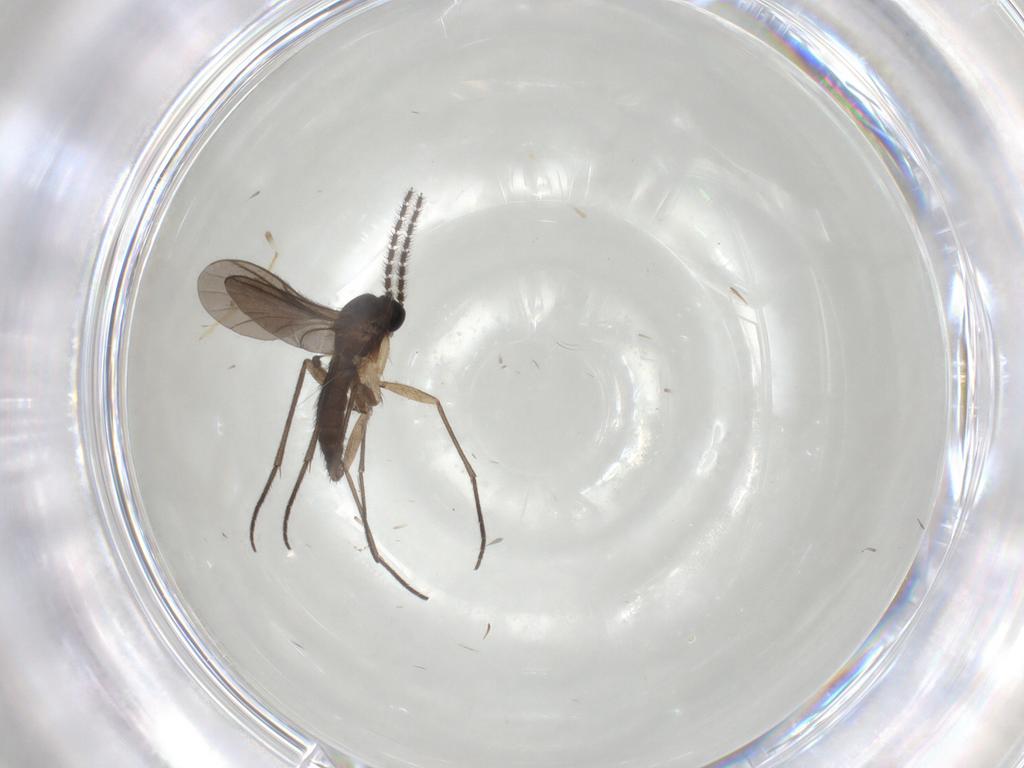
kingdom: Animalia
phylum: Arthropoda
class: Insecta
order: Diptera
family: Sciaridae
